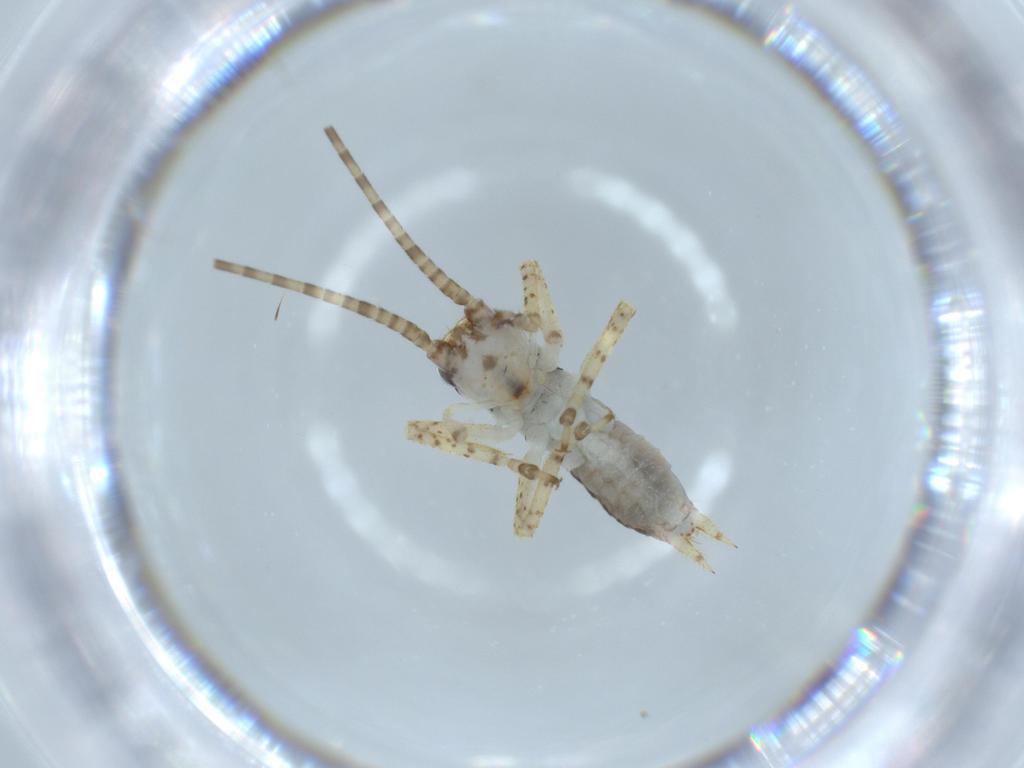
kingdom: Animalia
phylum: Arthropoda
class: Insecta
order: Orthoptera
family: Gryllidae
